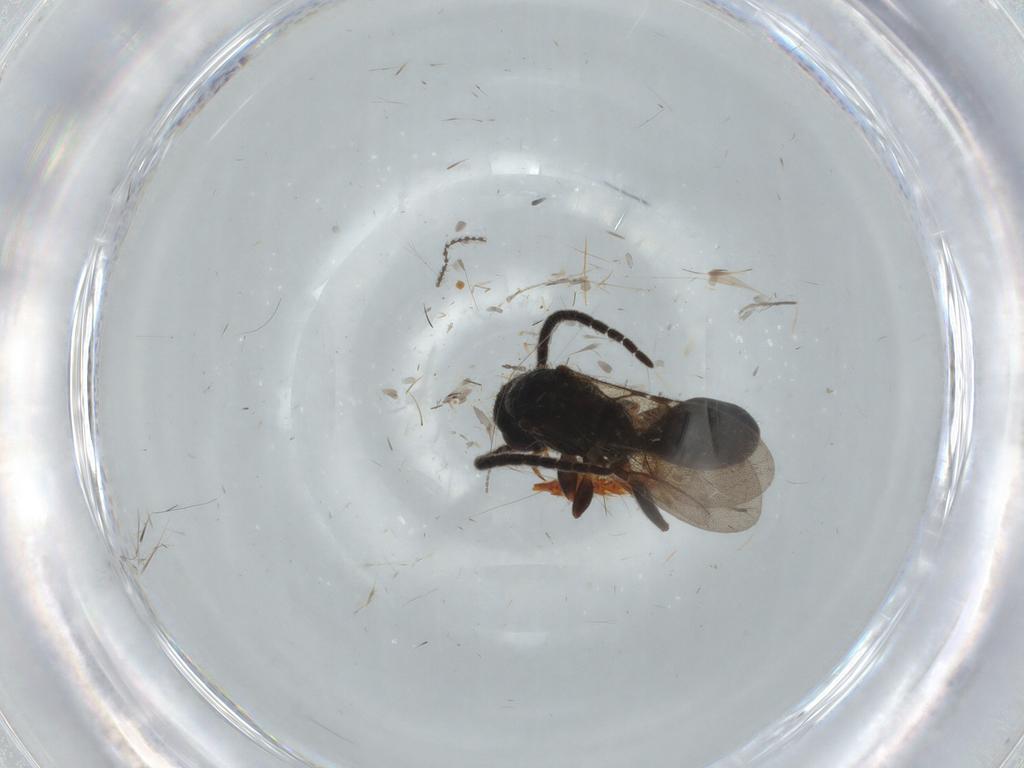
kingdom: Animalia
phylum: Arthropoda
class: Insecta
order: Hymenoptera
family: Formicidae
